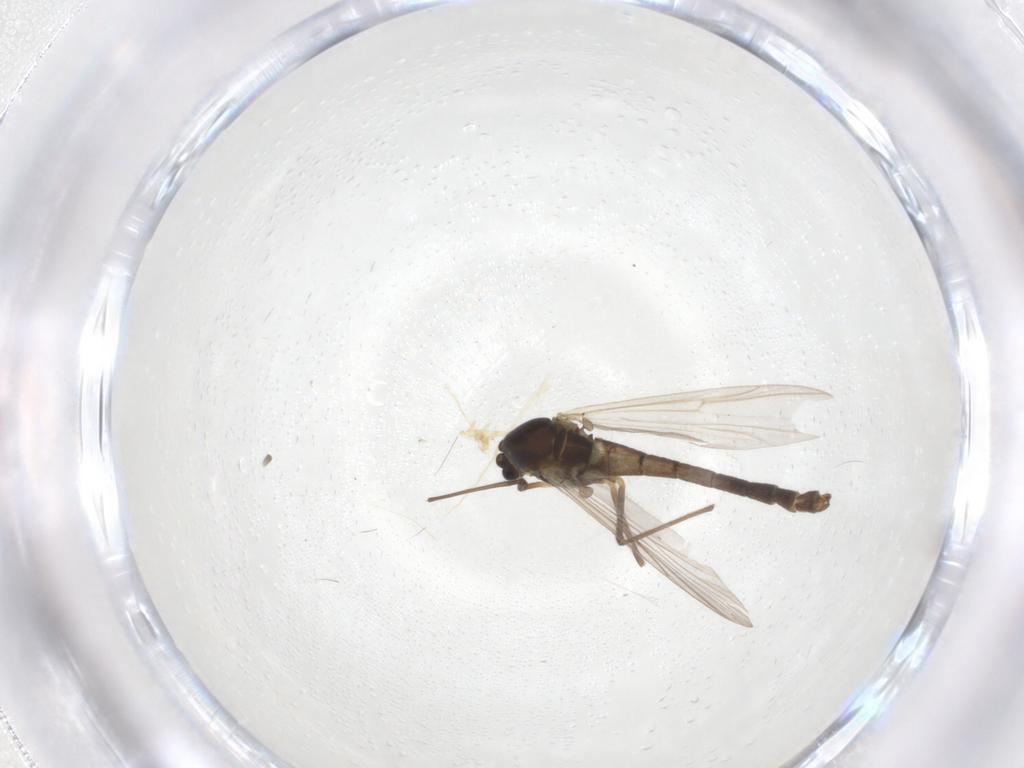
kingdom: Animalia
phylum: Arthropoda
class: Insecta
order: Diptera
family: Chironomidae
